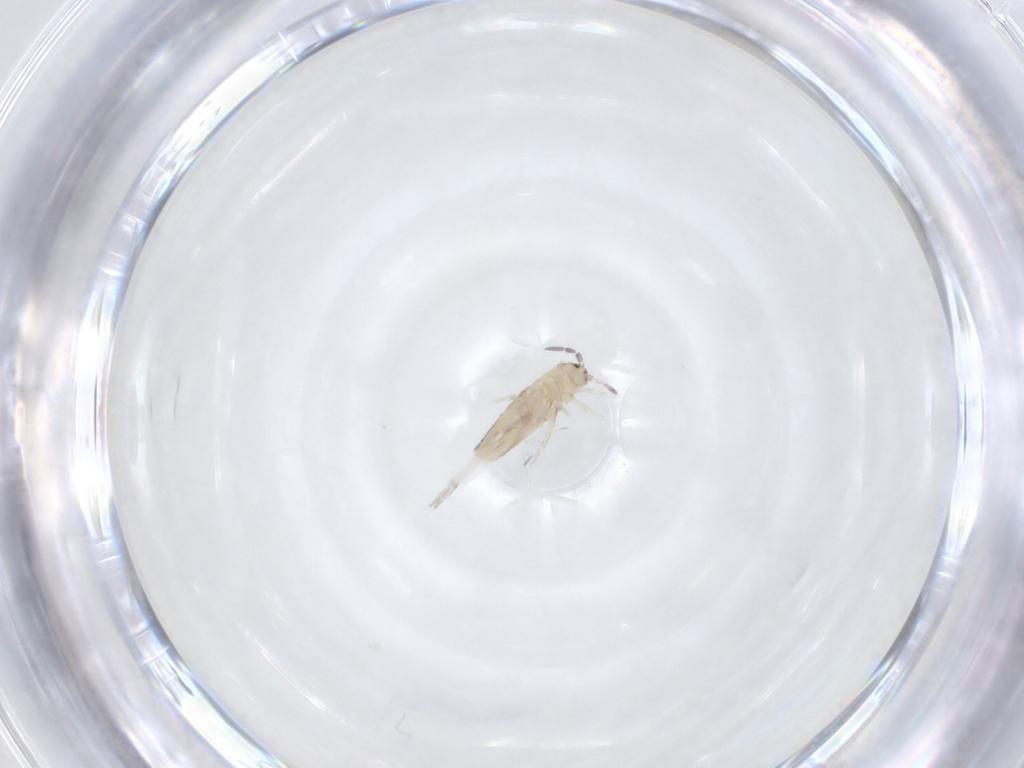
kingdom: Animalia
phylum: Arthropoda
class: Collembola
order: Entomobryomorpha
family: Entomobryidae
